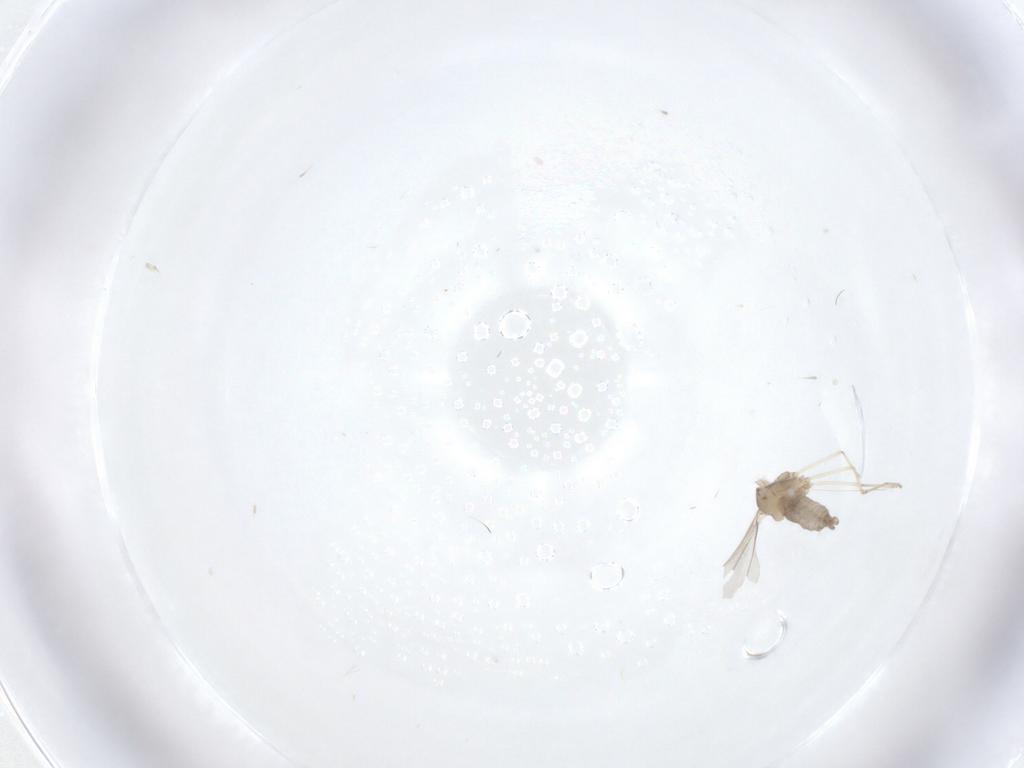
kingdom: Animalia
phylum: Arthropoda
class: Insecta
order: Diptera
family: Cecidomyiidae
